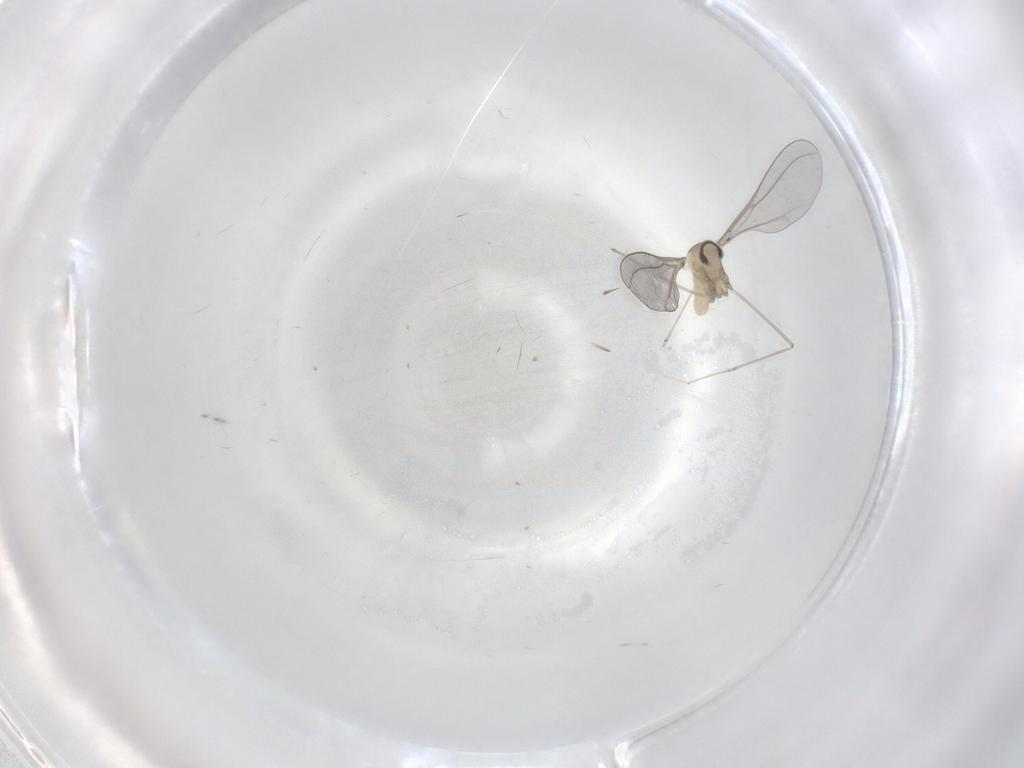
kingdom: Animalia
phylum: Arthropoda
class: Insecta
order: Diptera
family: Cecidomyiidae
